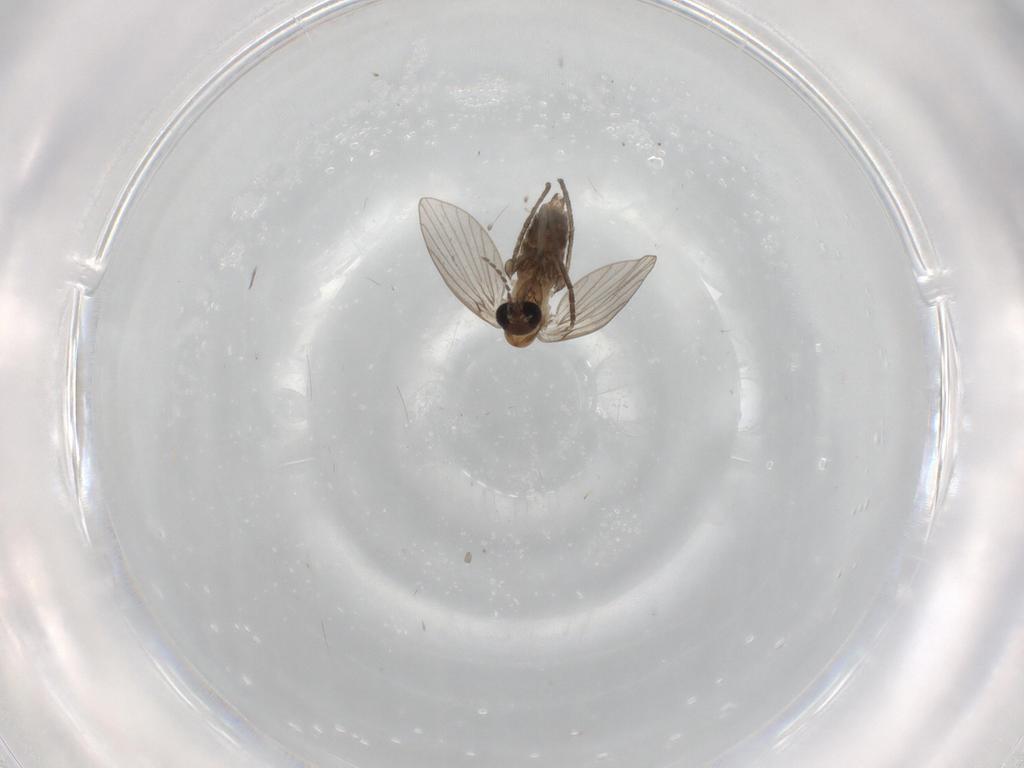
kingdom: Animalia
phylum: Arthropoda
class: Insecta
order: Diptera
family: Psychodidae
